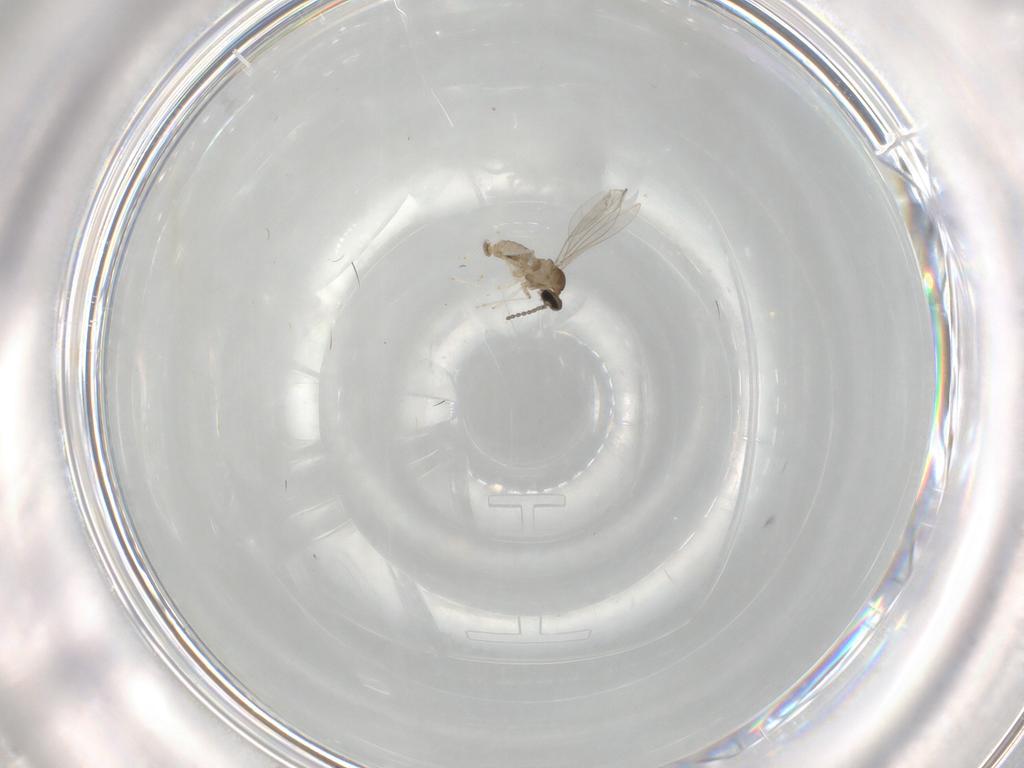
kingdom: Animalia
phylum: Arthropoda
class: Insecta
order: Diptera
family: Cecidomyiidae
